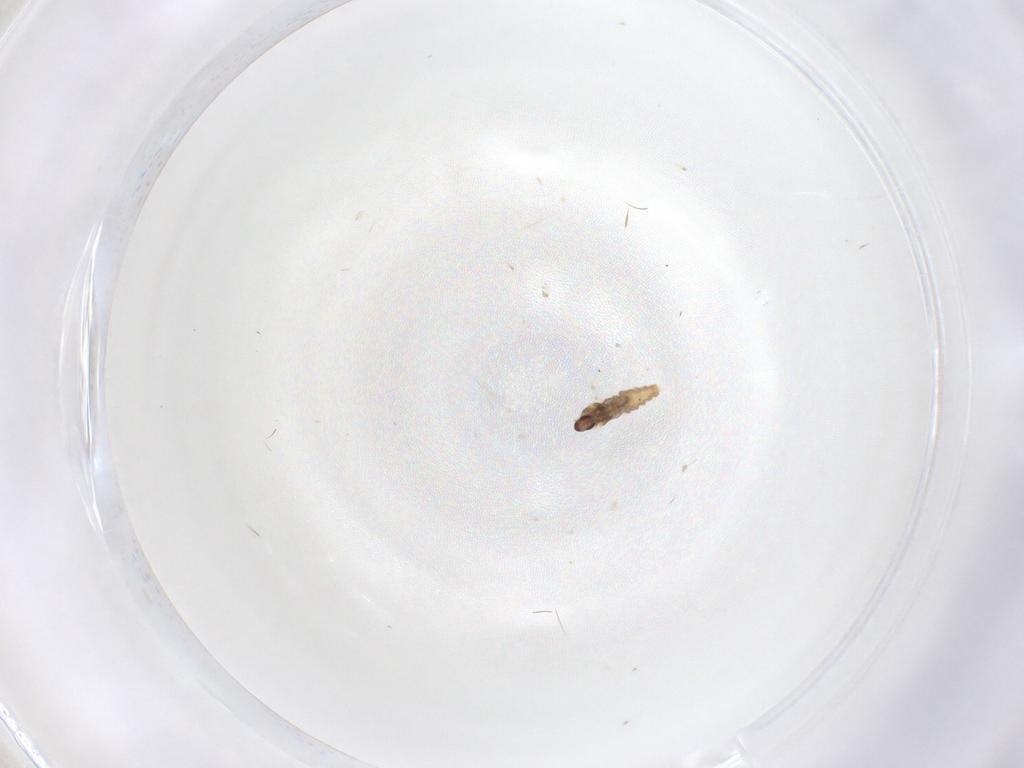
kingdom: Animalia
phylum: Arthropoda
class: Insecta
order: Diptera
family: Cecidomyiidae
